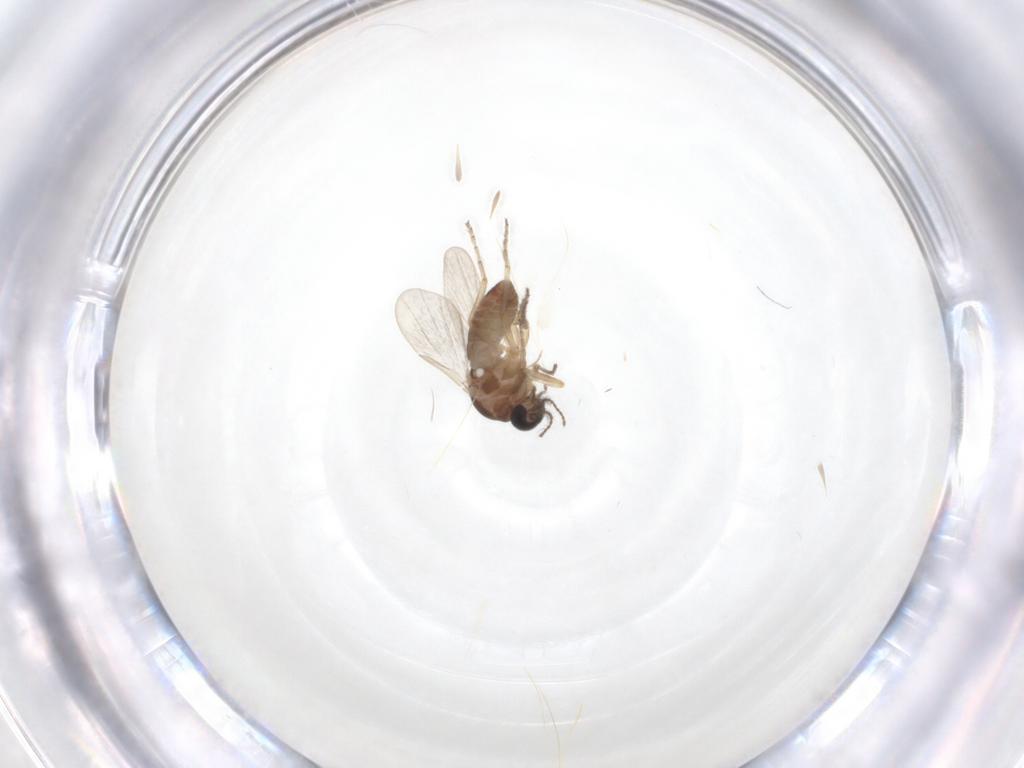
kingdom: Animalia
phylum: Arthropoda
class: Insecta
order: Diptera
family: Ceratopogonidae
